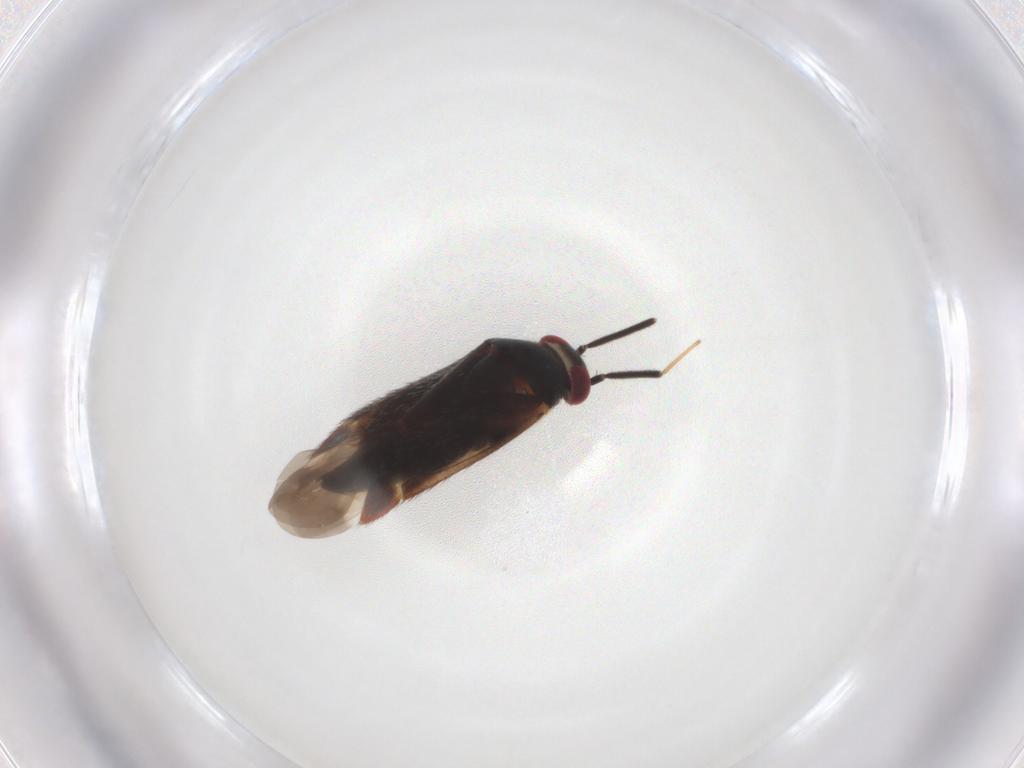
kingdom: Animalia
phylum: Arthropoda
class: Insecta
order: Hemiptera
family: Miridae
